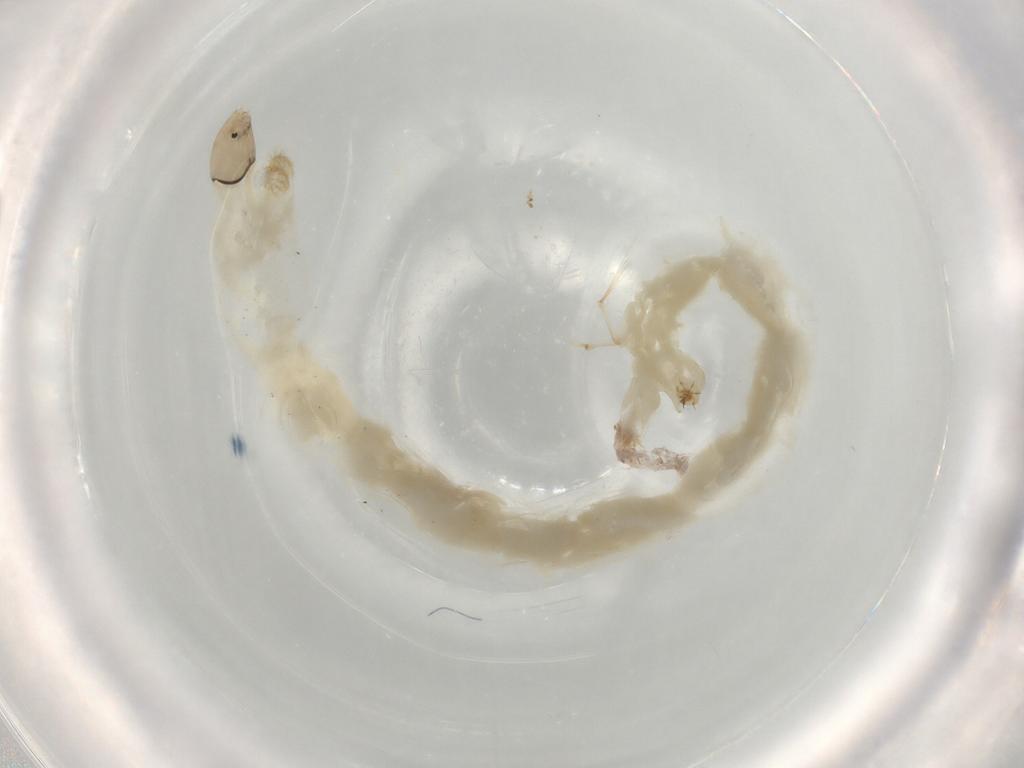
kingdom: Animalia
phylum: Arthropoda
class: Insecta
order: Diptera
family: Chironomidae
